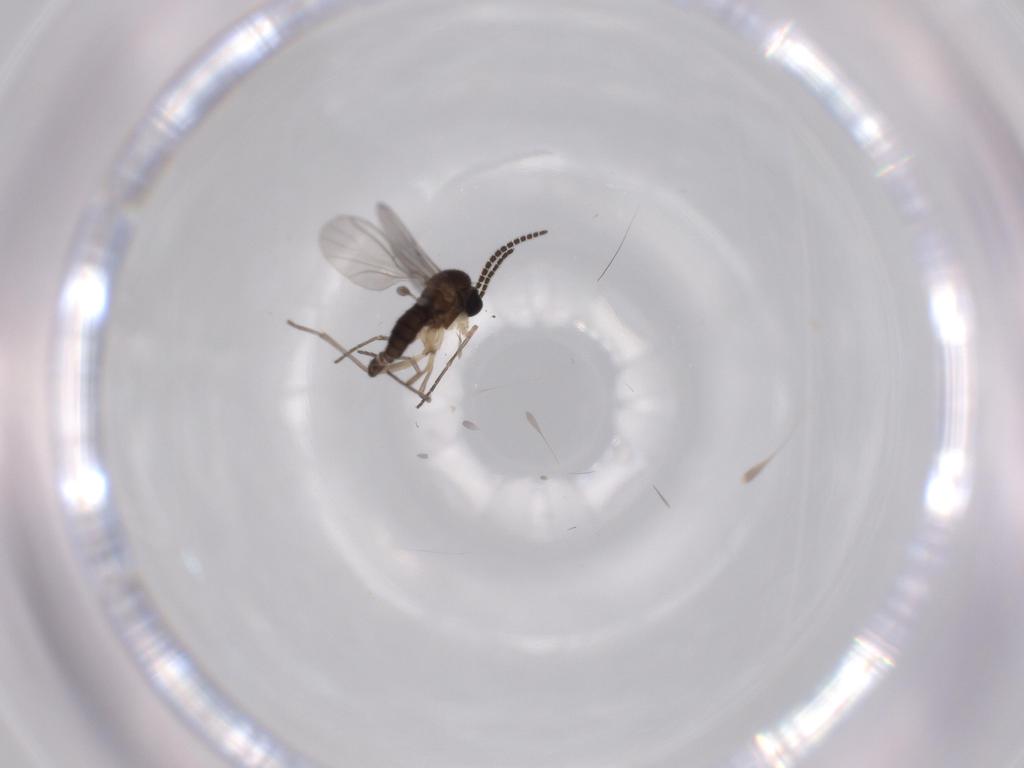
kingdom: Animalia
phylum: Arthropoda
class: Insecta
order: Diptera
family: Sciaridae
